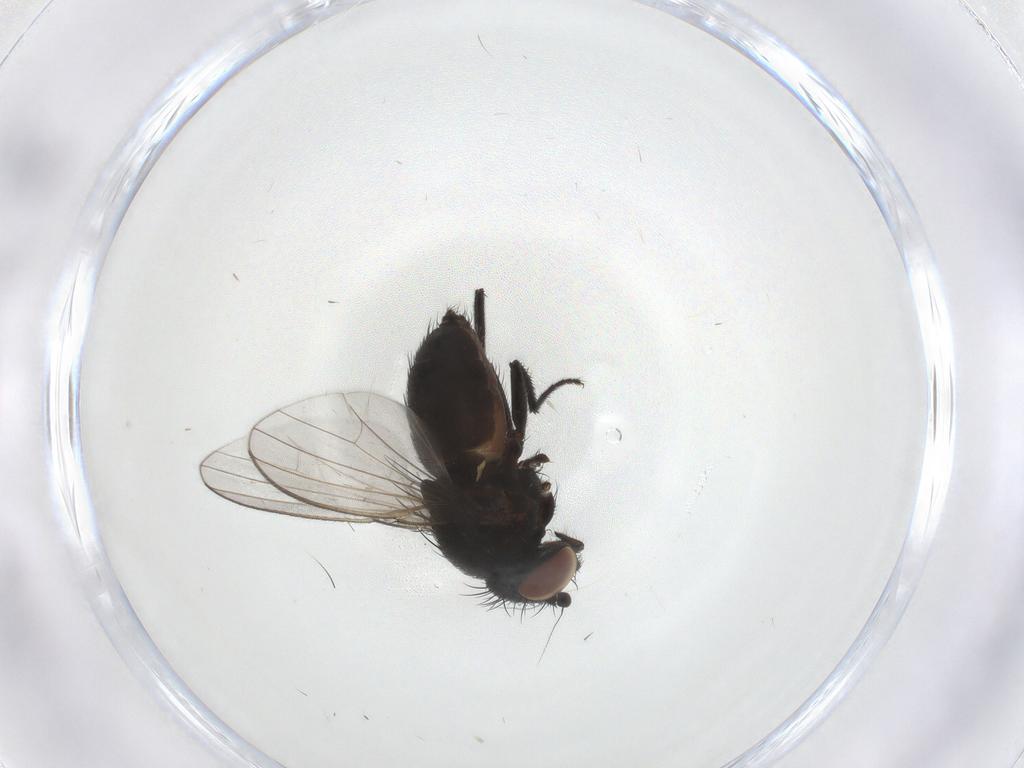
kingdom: Animalia
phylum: Arthropoda
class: Insecta
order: Diptera
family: Milichiidae
